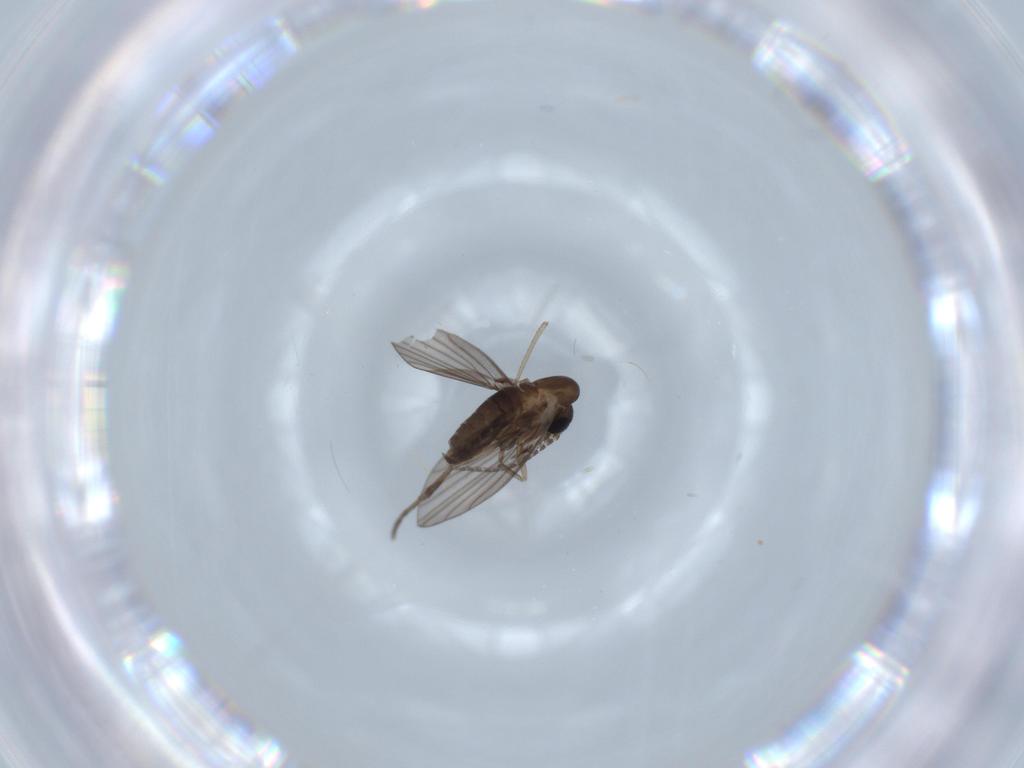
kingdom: Animalia
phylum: Arthropoda
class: Insecta
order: Diptera
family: Psychodidae
